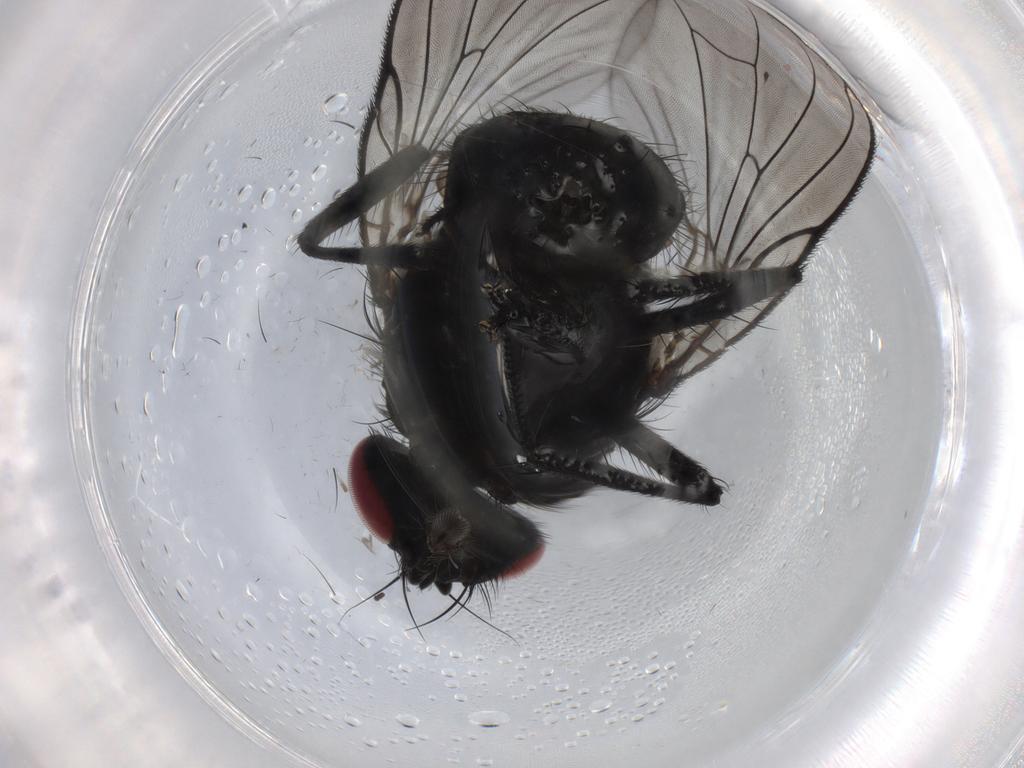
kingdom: Animalia
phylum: Arthropoda
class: Insecta
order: Diptera
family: Fannia
